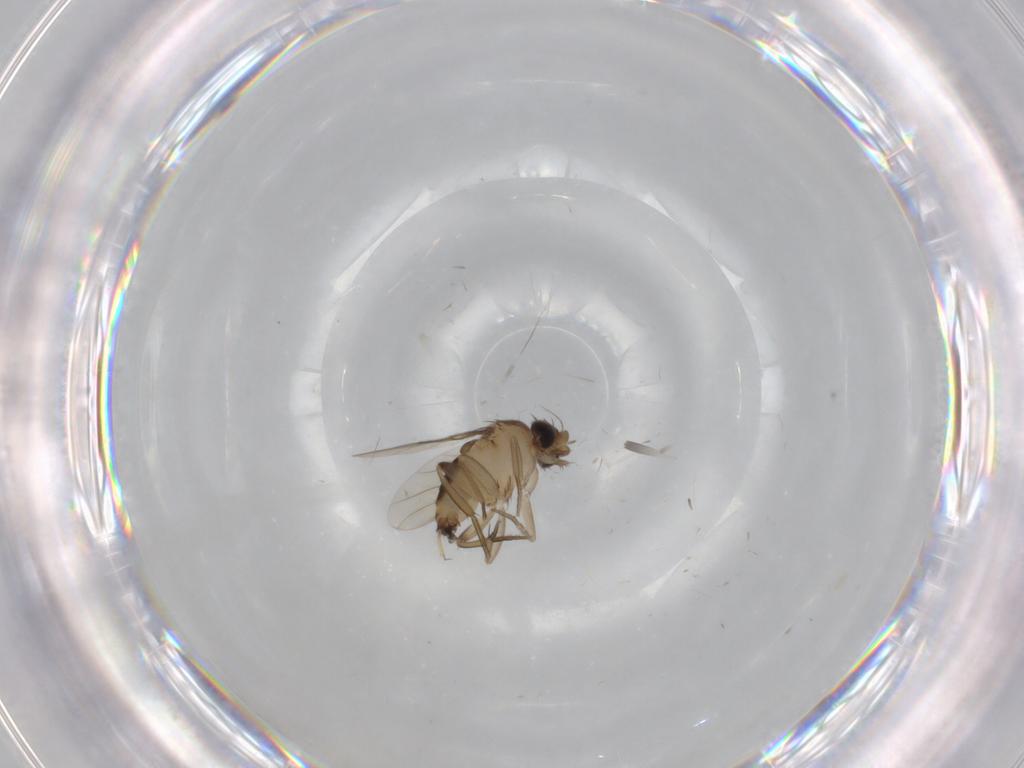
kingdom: Animalia
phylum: Arthropoda
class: Insecta
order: Diptera
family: Phoridae
